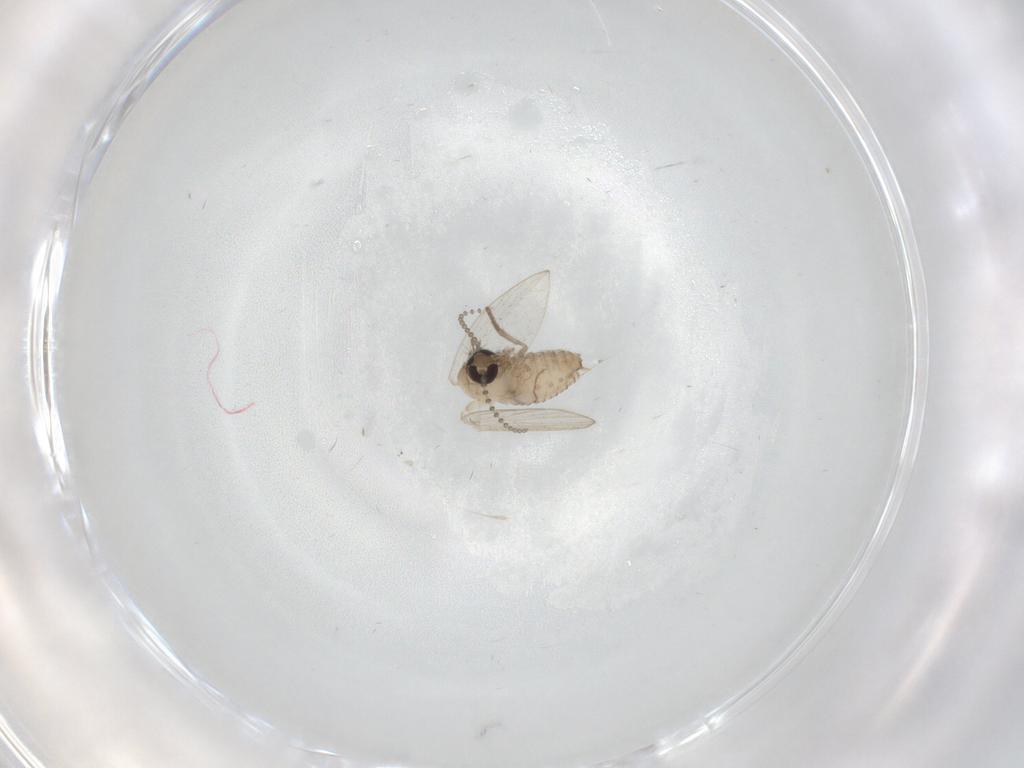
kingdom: Animalia
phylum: Arthropoda
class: Insecta
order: Diptera
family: Psychodidae
